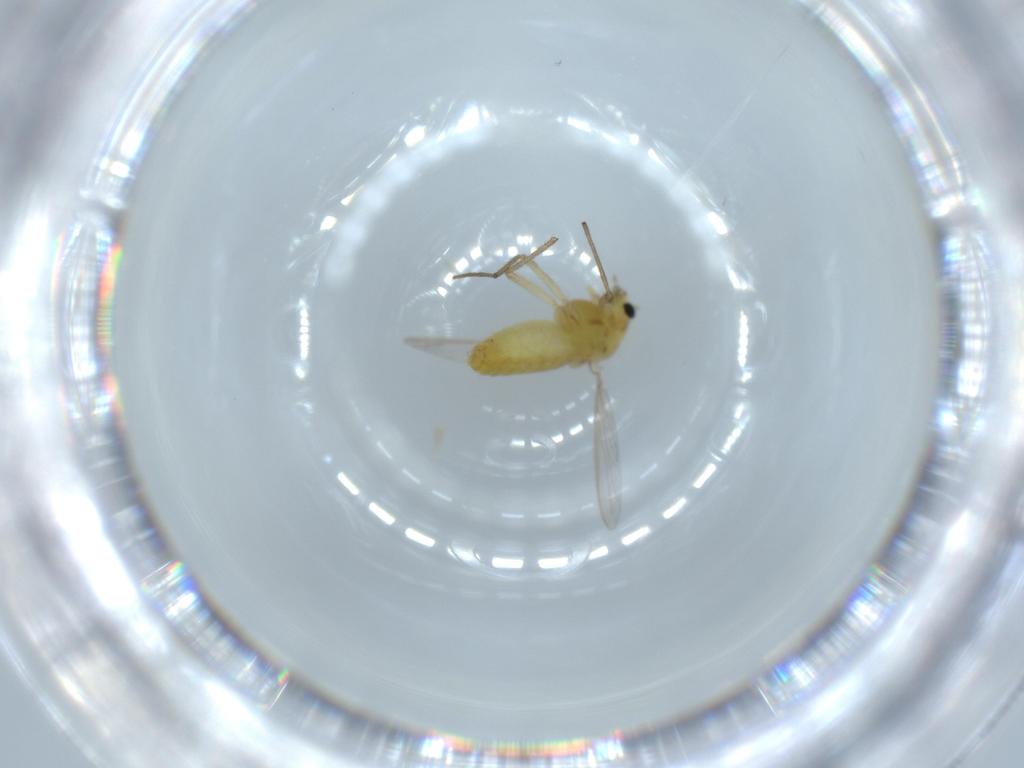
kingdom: Animalia
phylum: Arthropoda
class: Insecta
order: Diptera
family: Chironomidae
